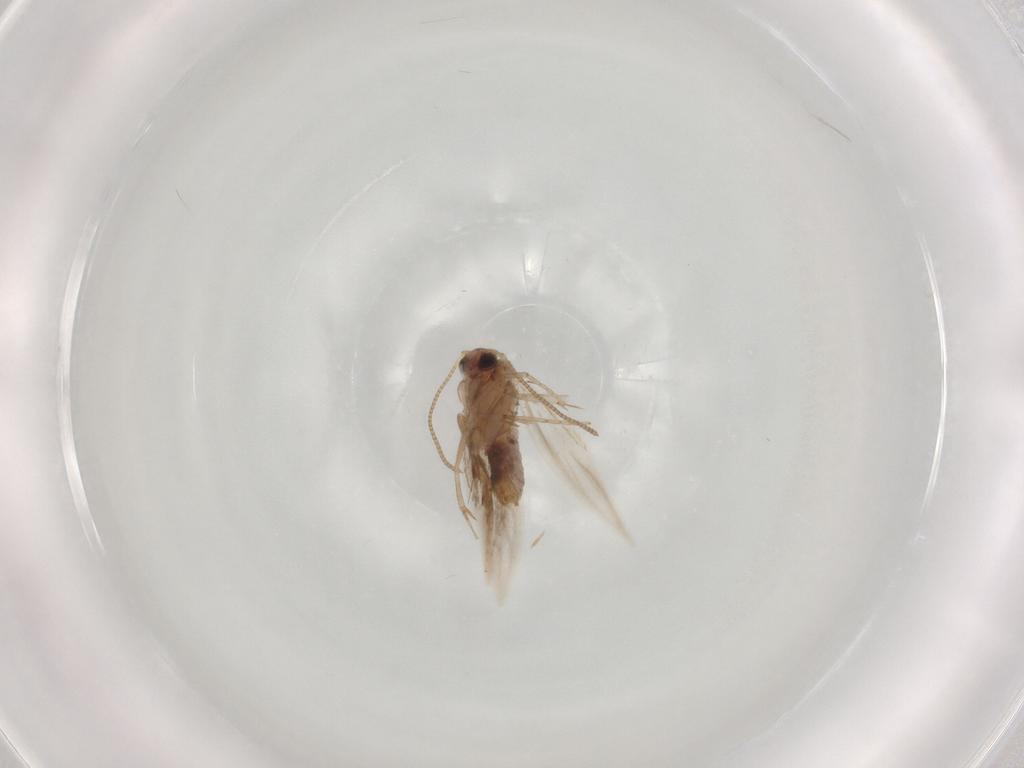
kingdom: Animalia
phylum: Arthropoda
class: Insecta
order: Lepidoptera
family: Nepticulidae
